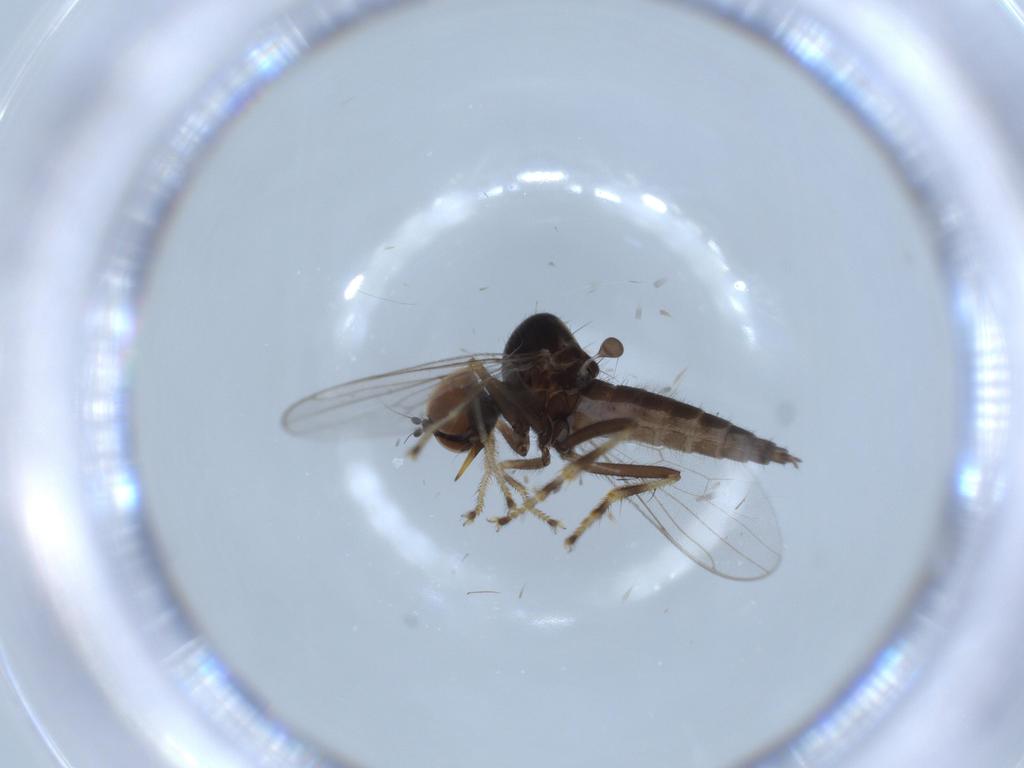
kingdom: Animalia
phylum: Arthropoda
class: Insecta
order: Diptera
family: Hybotidae
